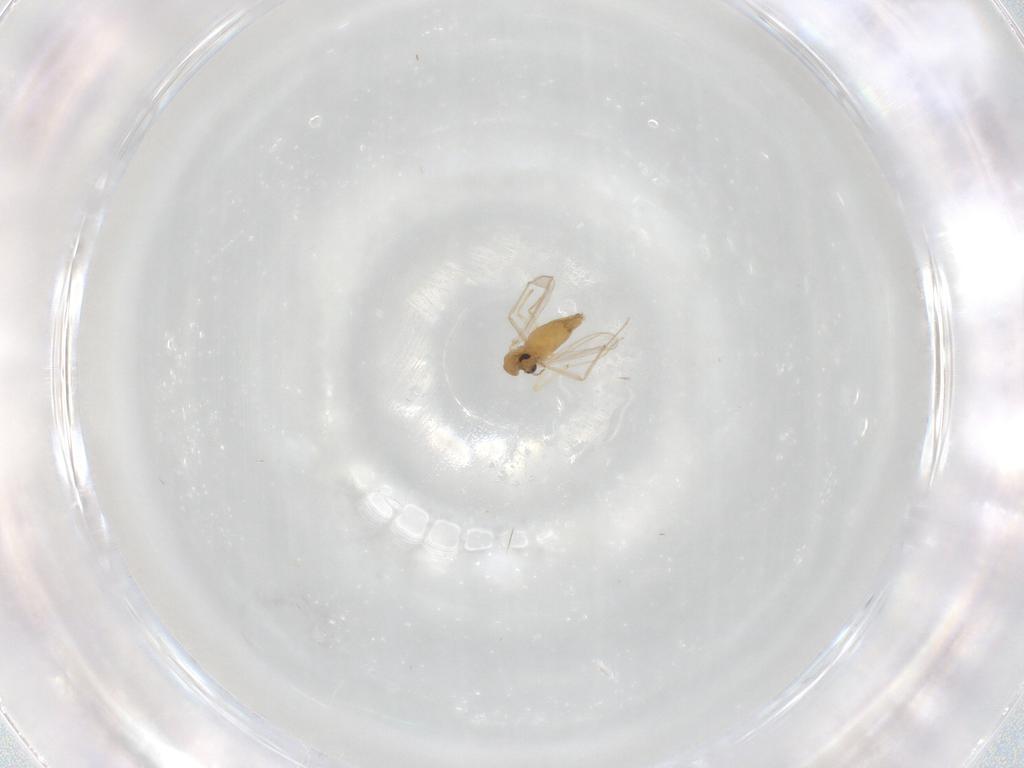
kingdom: Animalia
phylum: Arthropoda
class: Insecta
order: Diptera
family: Chironomidae
